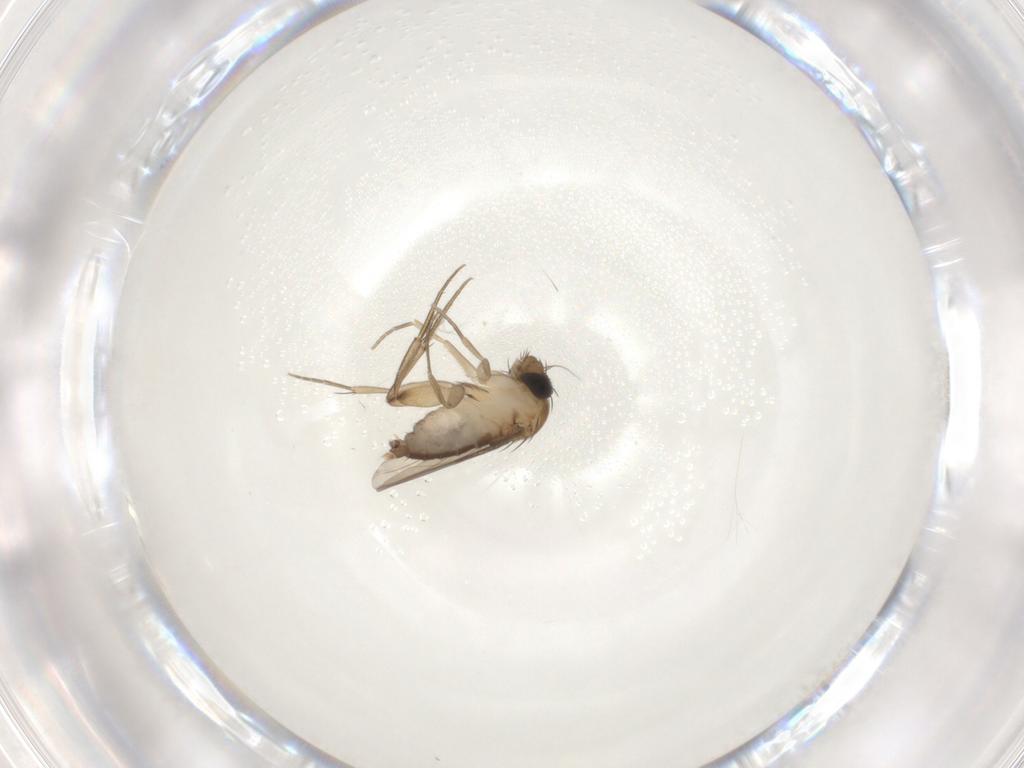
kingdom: Animalia
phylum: Arthropoda
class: Insecta
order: Diptera
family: Phoridae
